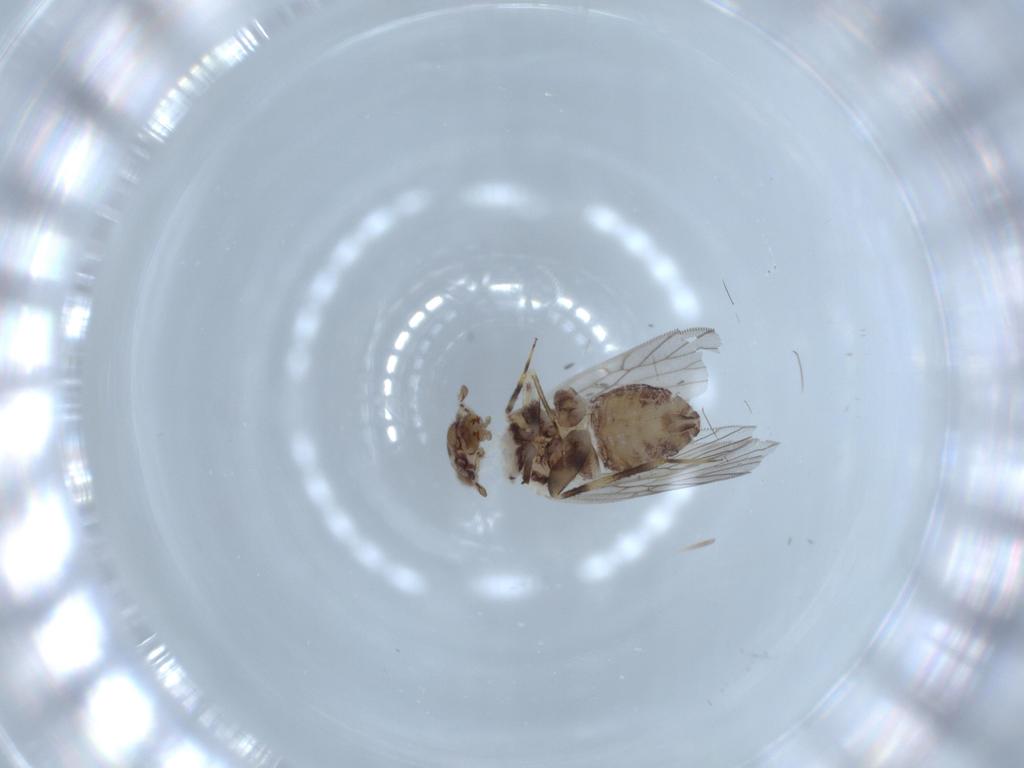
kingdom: Animalia
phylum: Arthropoda
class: Insecta
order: Psocodea
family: Lepidopsocidae
